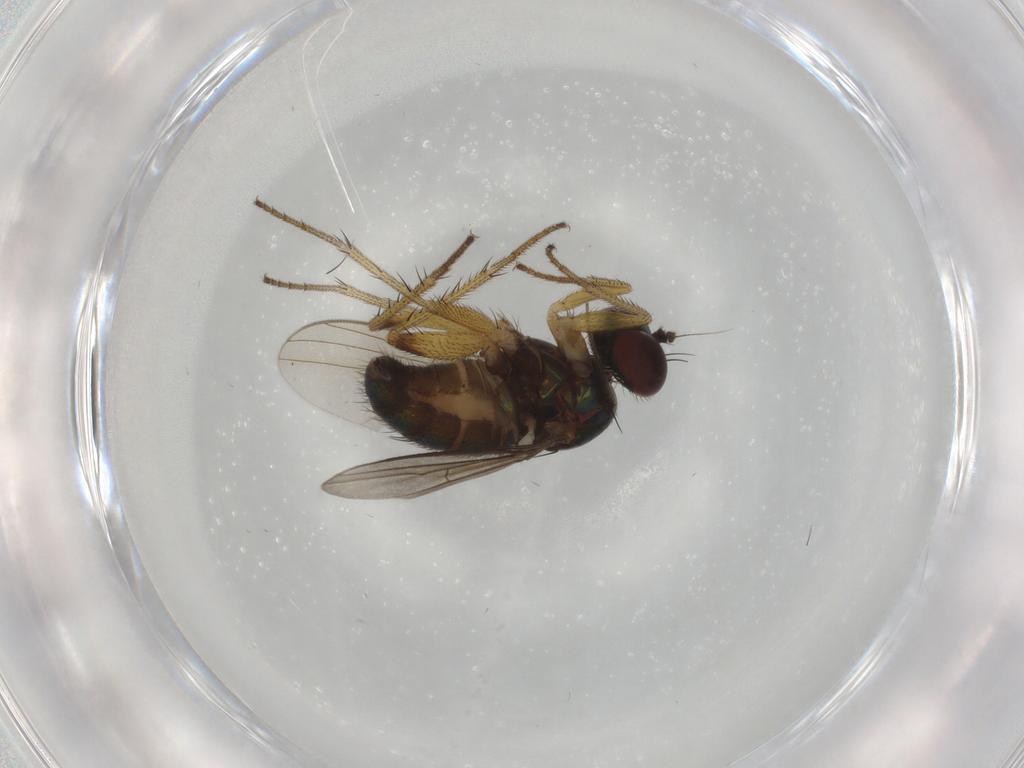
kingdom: Animalia
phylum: Arthropoda
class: Insecta
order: Diptera
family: Dolichopodidae
